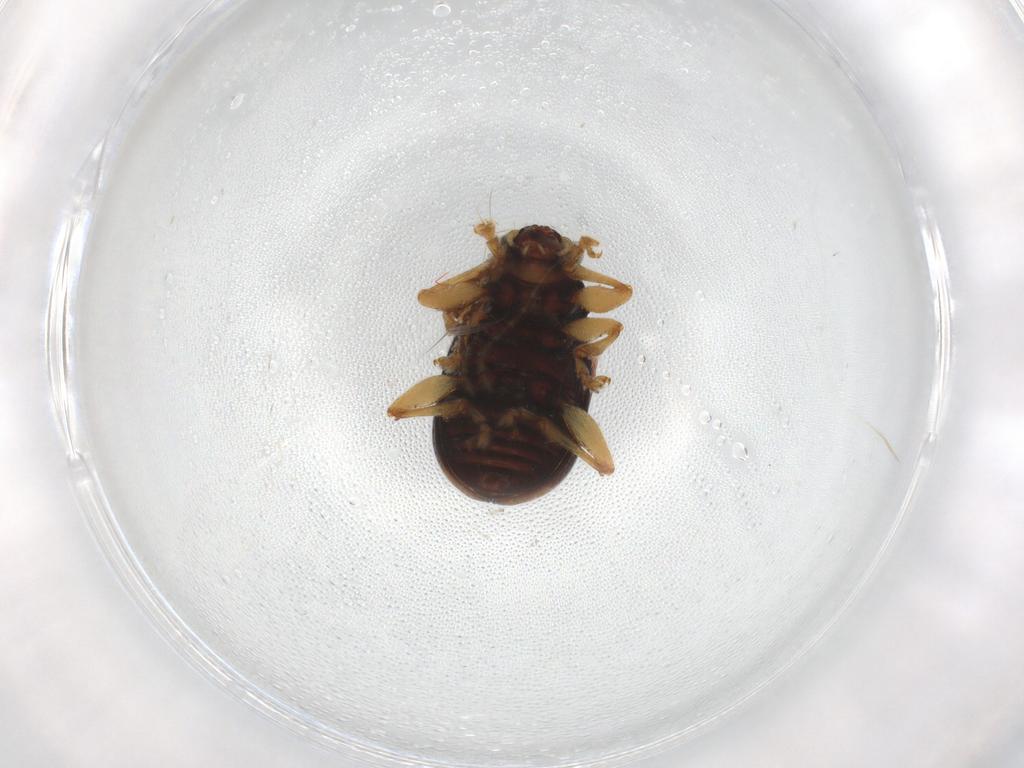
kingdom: Animalia
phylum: Arthropoda
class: Insecta
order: Coleoptera
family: Chrysomelidae
